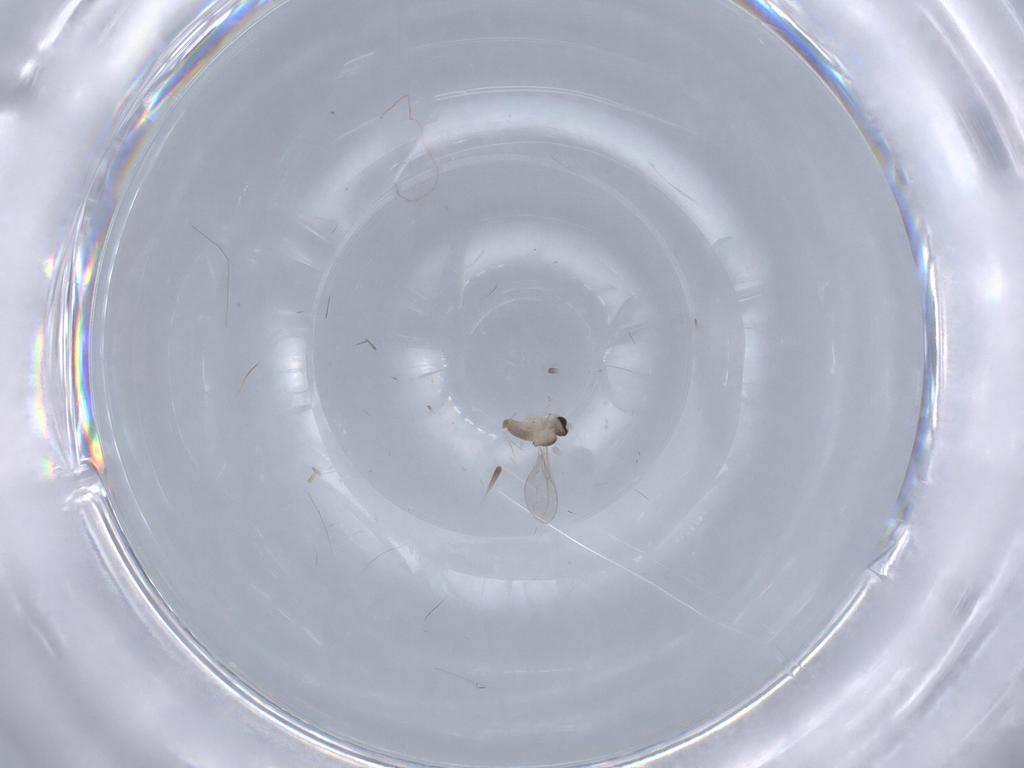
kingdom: Animalia
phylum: Arthropoda
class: Insecta
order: Diptera
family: Cecidomyiidae
